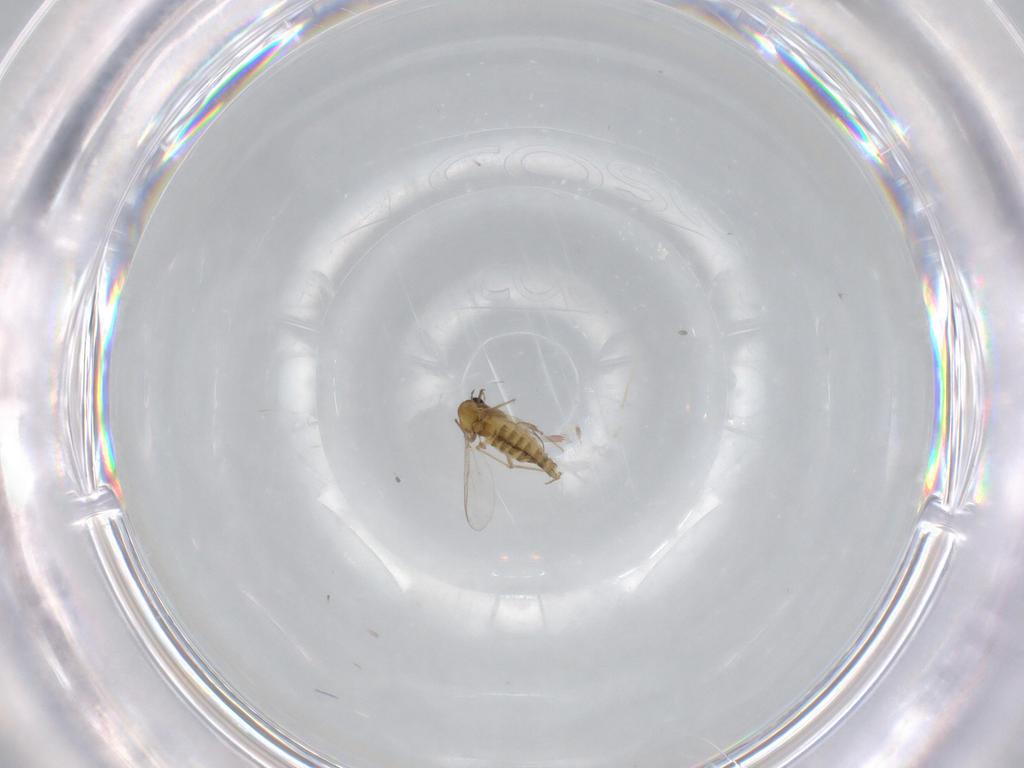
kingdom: Animalia
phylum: Arthropoda
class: Insecta
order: Diptera
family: Chironomidae
